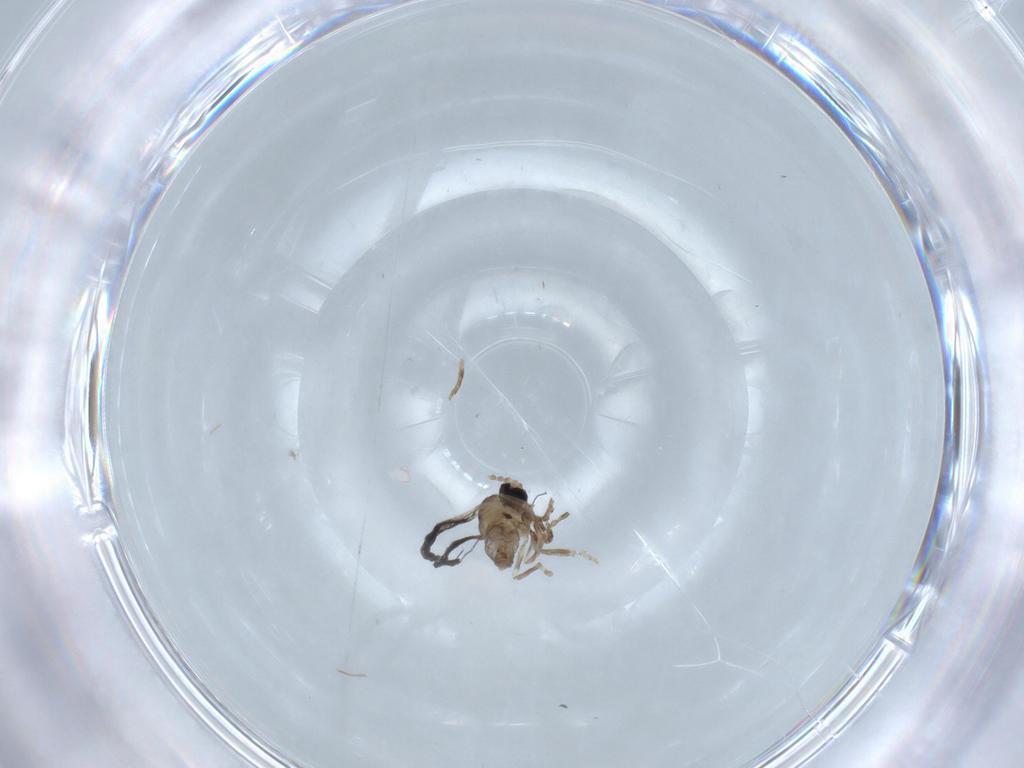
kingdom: Animalia
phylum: Arthropoda
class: Insecta
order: Diptera
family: Cecidomyiidae
